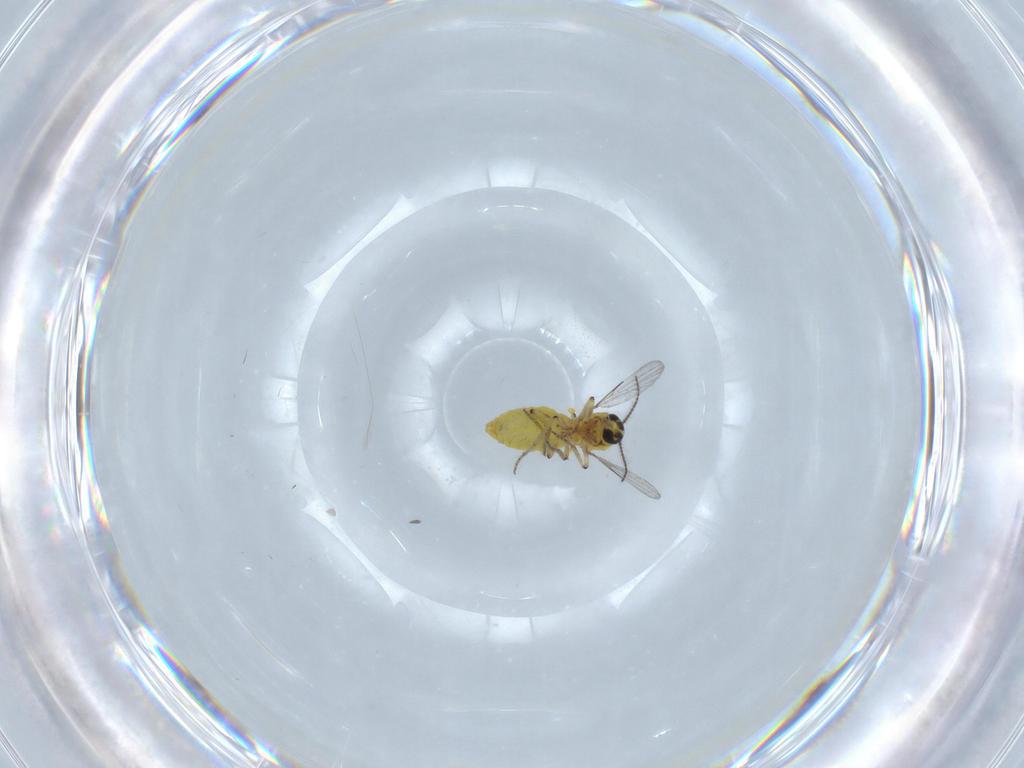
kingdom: Animalia
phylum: Arthropoda
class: Insecta
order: Diptera
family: Ceratopogonidae
